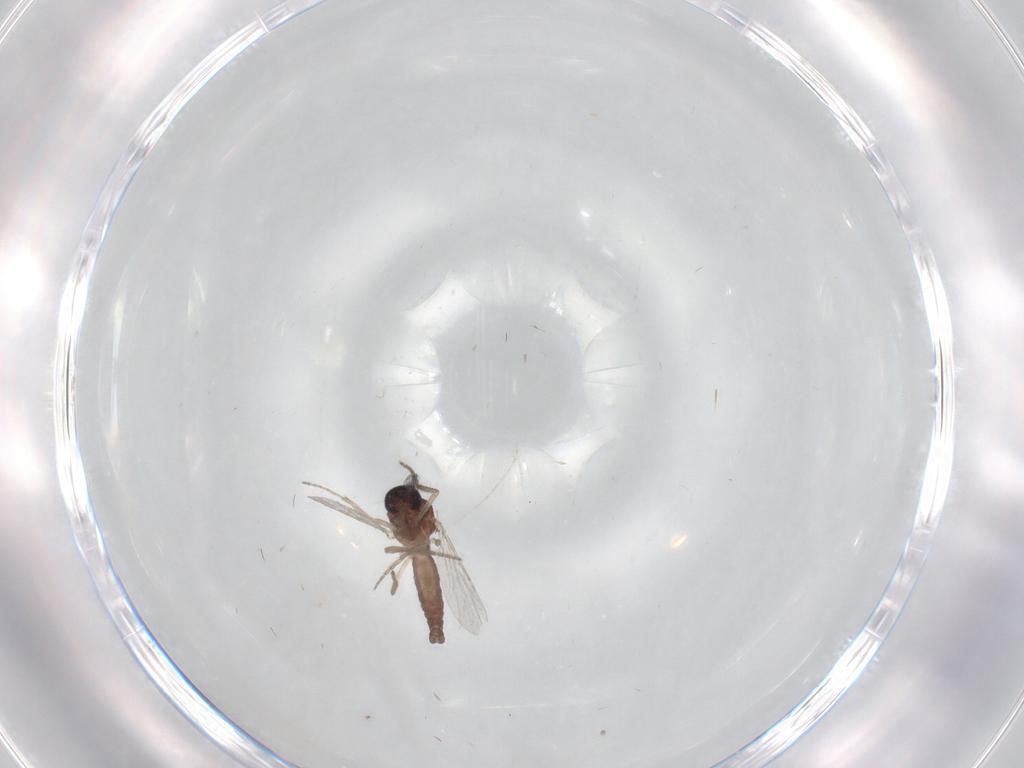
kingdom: Animalia
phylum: Arthropoda
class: Insecta
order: Diptera
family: Ceratopogonidae
